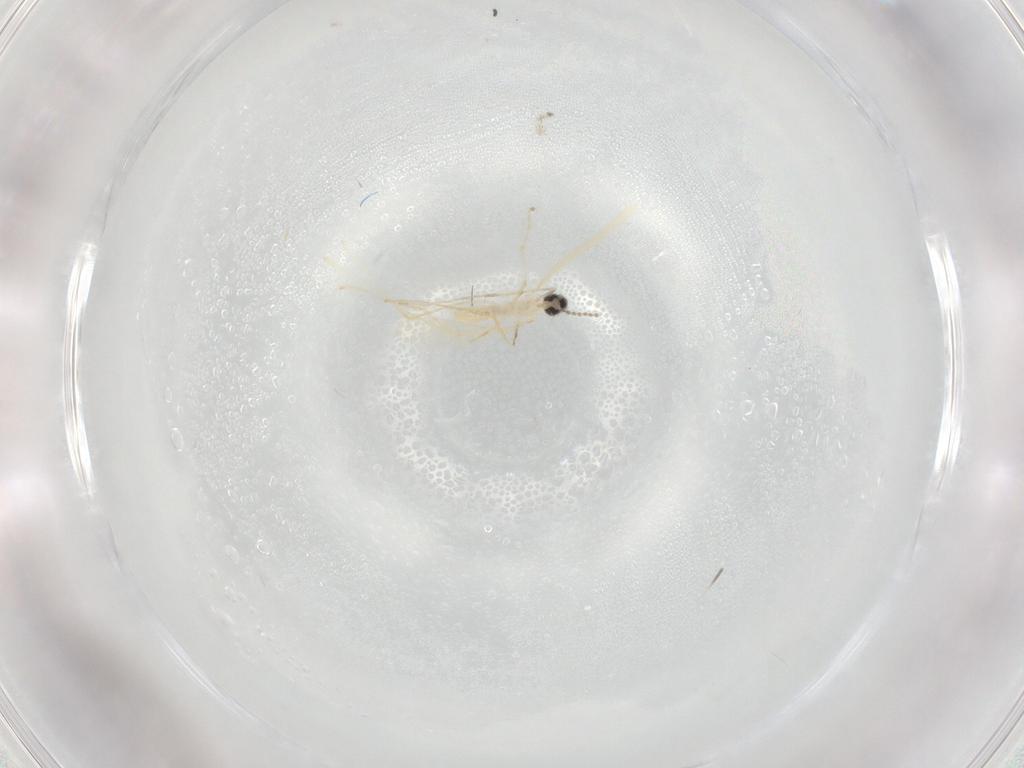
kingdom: Animalia
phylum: Arthropoda
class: Insecta
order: Diptera
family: Cecidomyiidae
